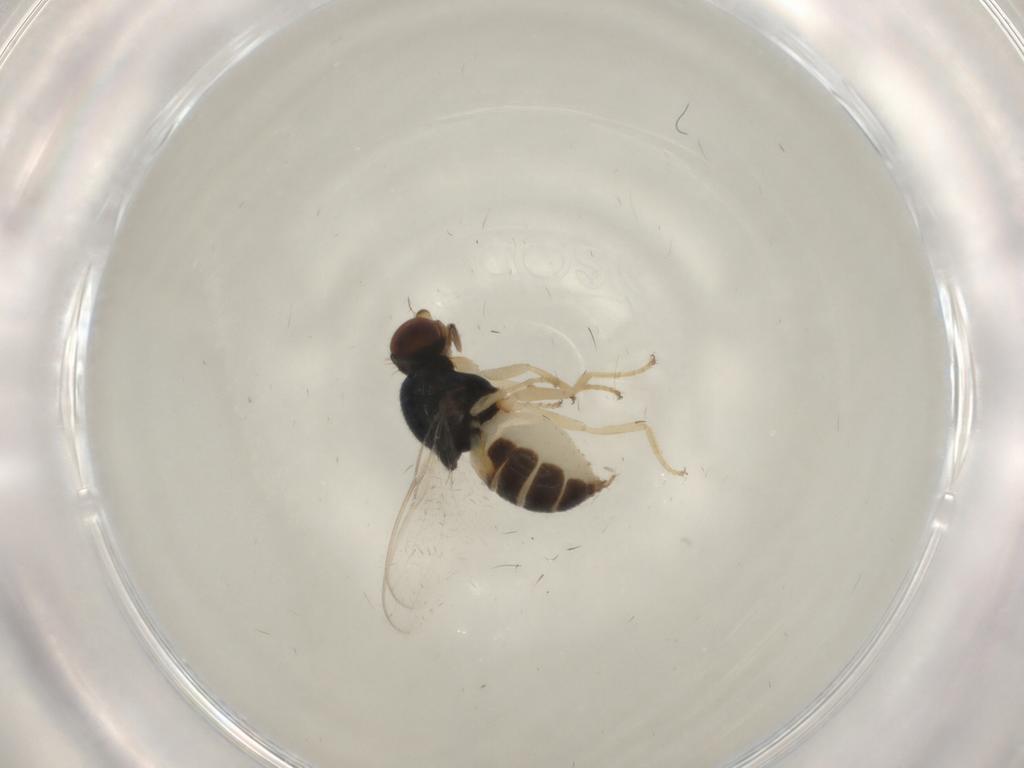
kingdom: Animalia
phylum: Arthropoda
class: Insecta
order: Diptera
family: Chloropidae
